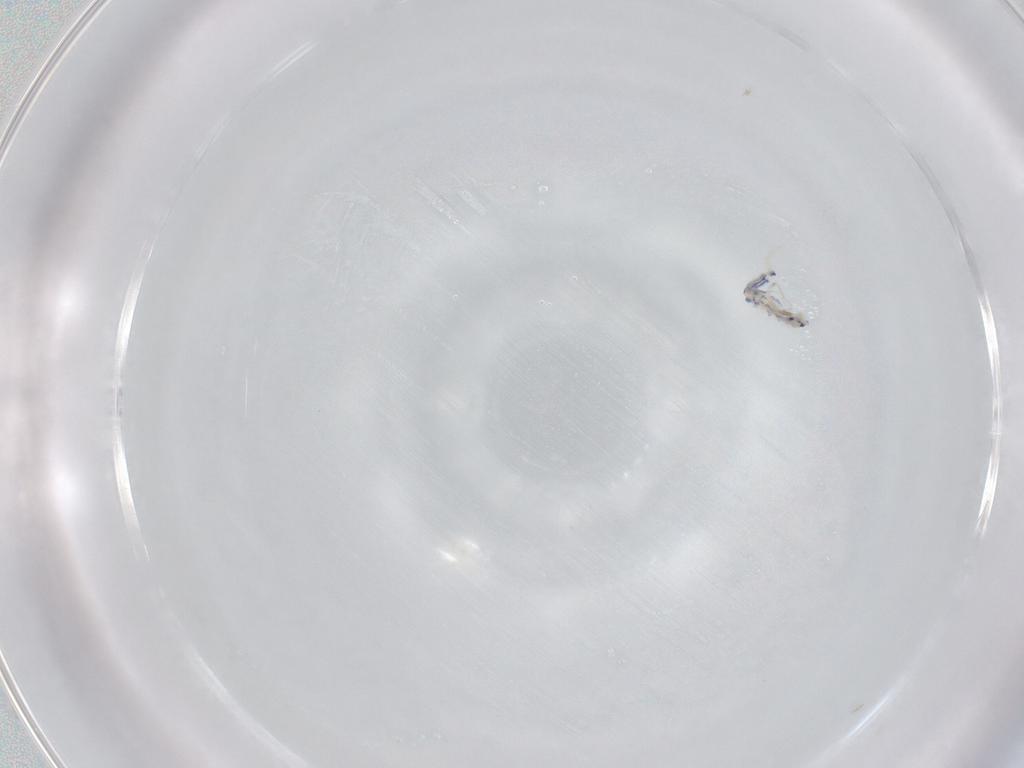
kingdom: Animalia
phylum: Arthropoda
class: Collembola
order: Entomobryomorpha
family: Entomobryidae
